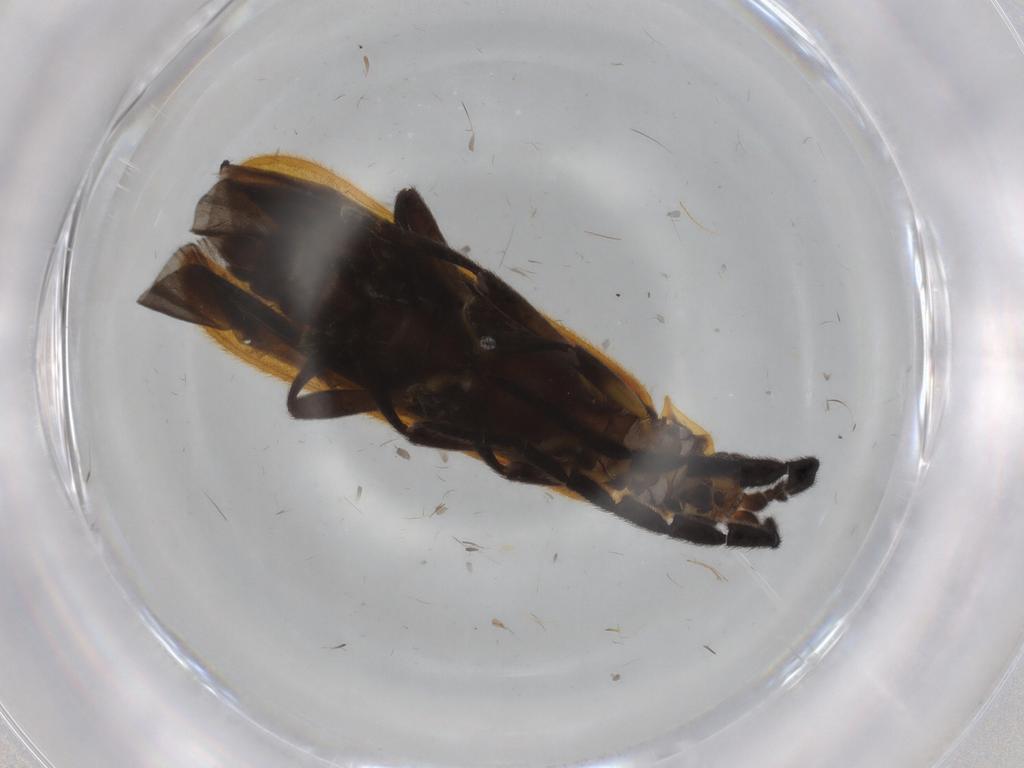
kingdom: Animalia
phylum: Arthropoda
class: Insecta
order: Coleoptera
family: Lycidae
